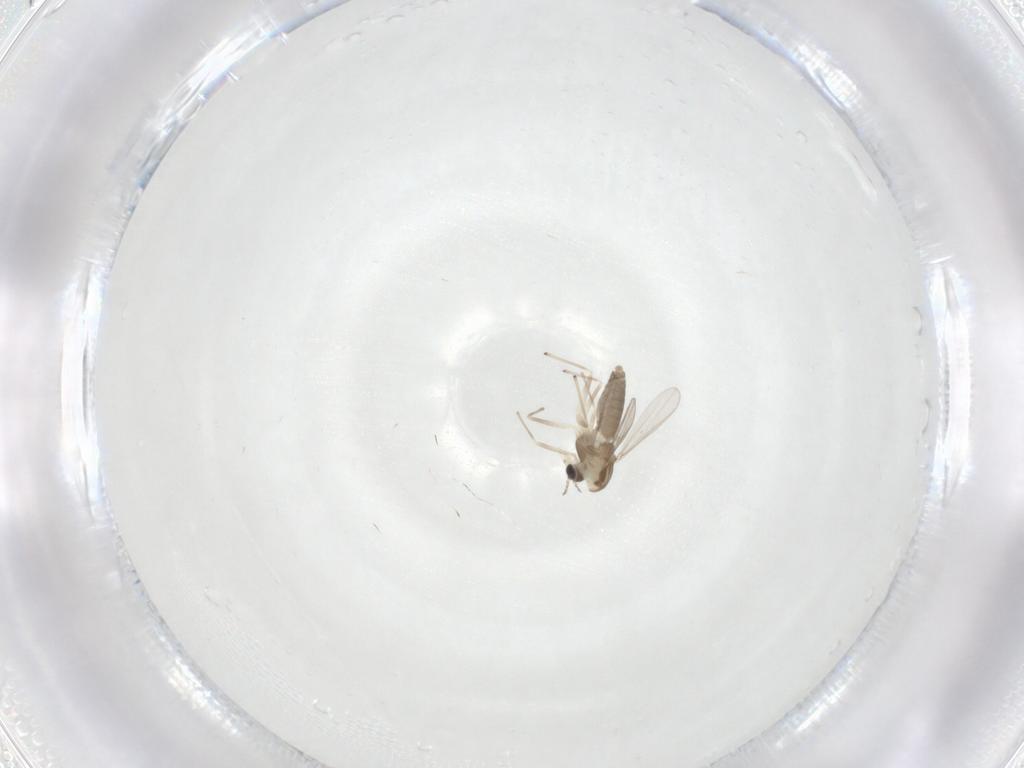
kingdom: Animalia
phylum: Arthropoda
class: Insecta
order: Diptera
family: Tabanidae
